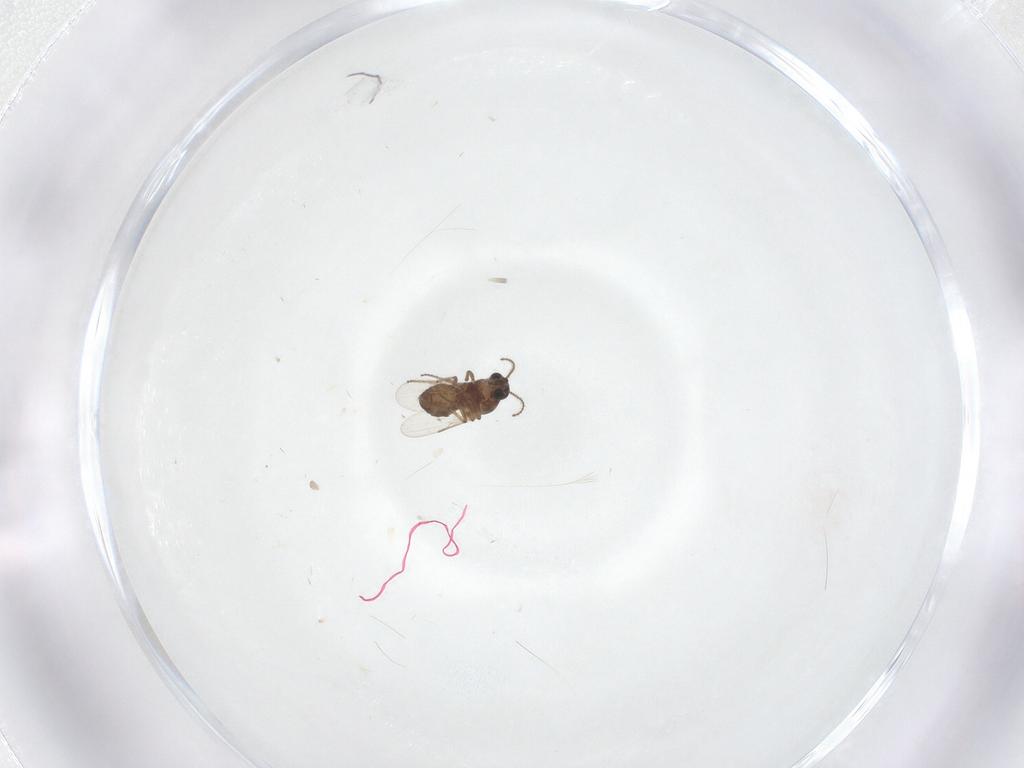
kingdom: Animalia
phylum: Arthropoda
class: Insecta
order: Diptera
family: Ceratopogonidae
